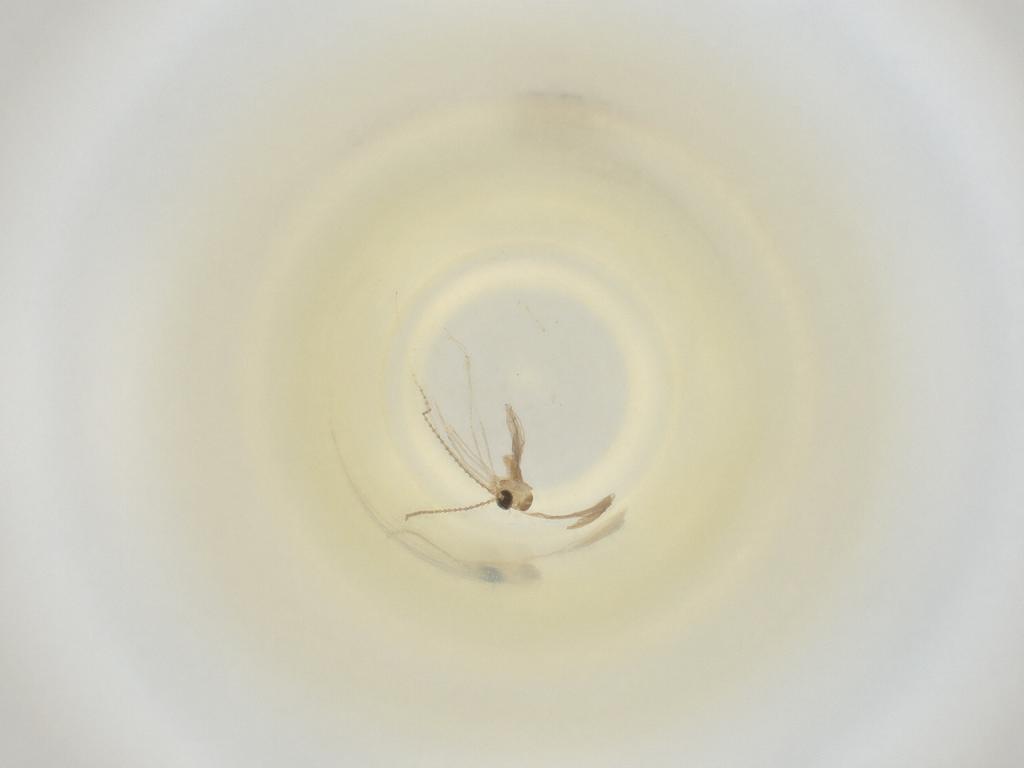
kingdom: Animalia
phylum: Arthropoda
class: Insecta
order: Diptera
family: Cecidomyiidae
